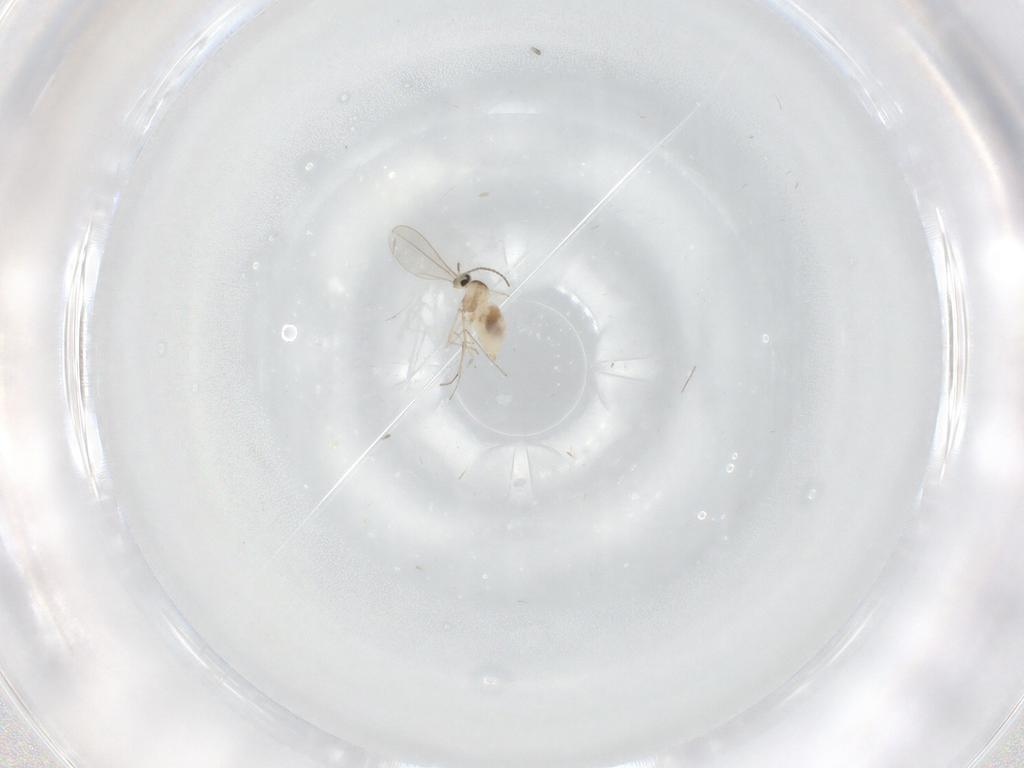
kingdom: Animalia
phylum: Arthropoda
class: Insecta
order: Diptera
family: Cecidomyiidae
